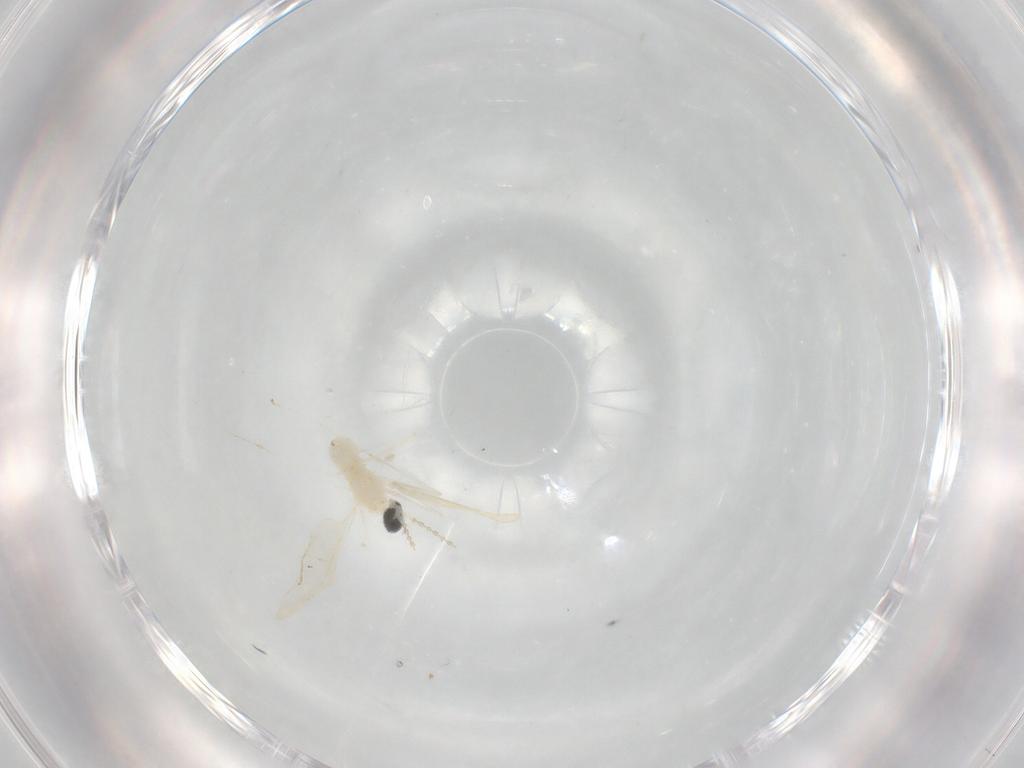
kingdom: Animalia
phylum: Arthropoda
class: Insecta
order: Diptera
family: Cecidomyiidae
